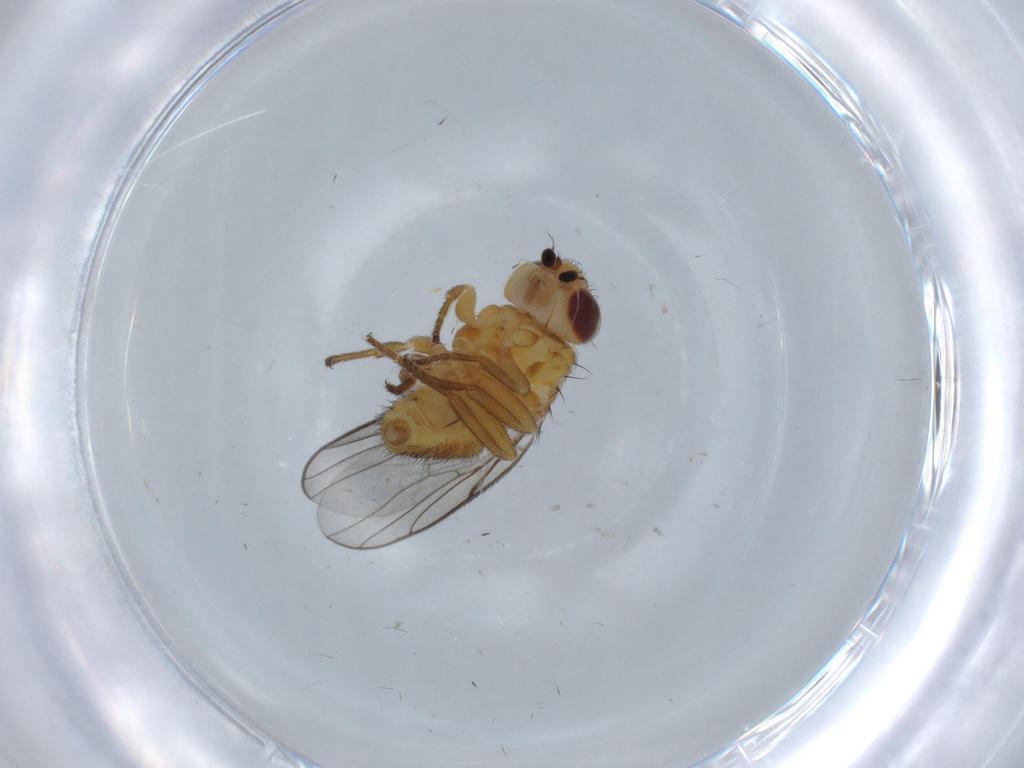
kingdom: Animalia
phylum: Arthropoda
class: Insecta
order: Diptera
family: Chloropidae
